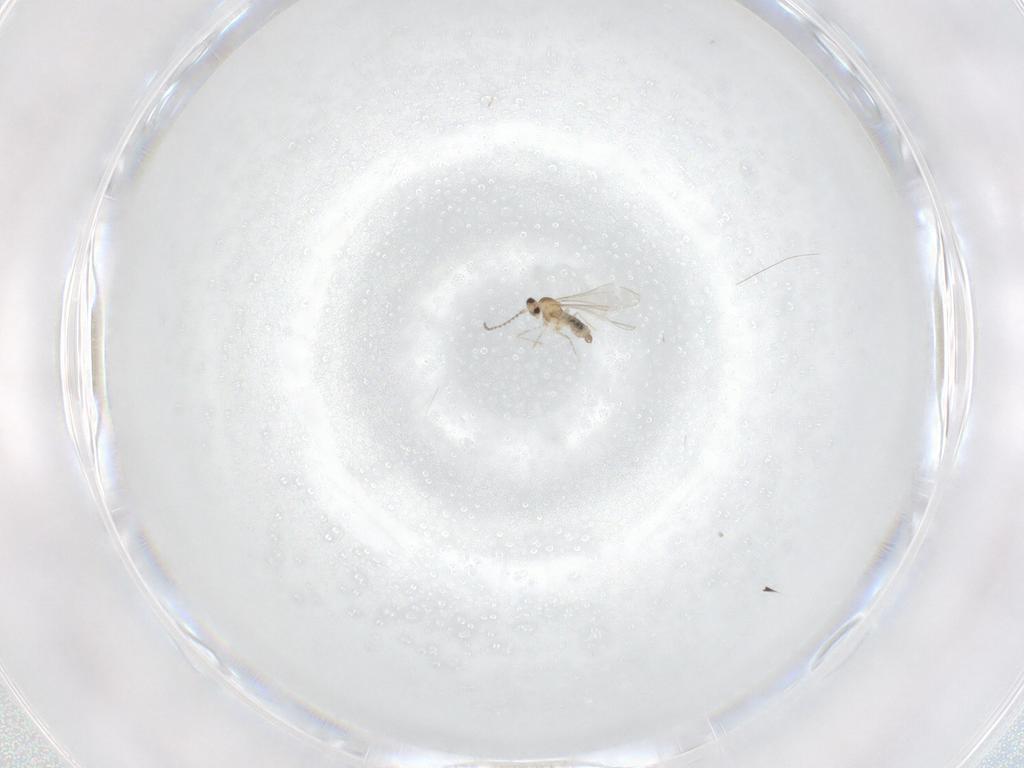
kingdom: Animalia
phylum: Arthropoda
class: Insecta
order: Diptera
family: Cecidomyiidae
